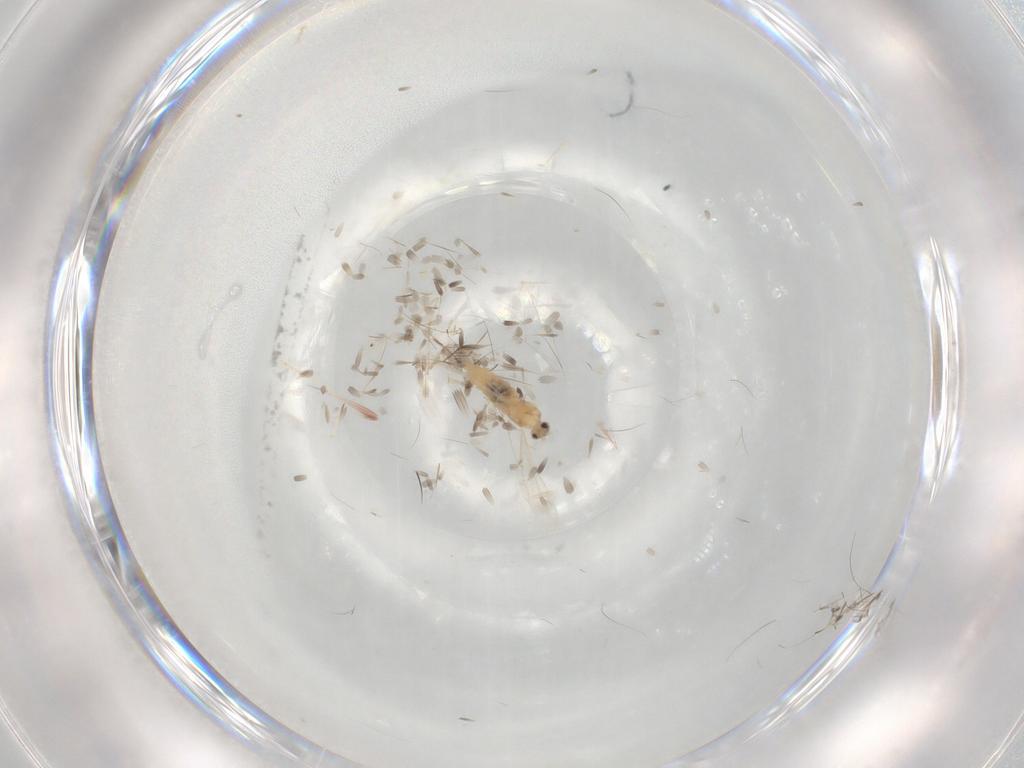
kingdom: Animalia
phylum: Arthropoda
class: Insecta
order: Diptera
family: Cecidomyiidae
